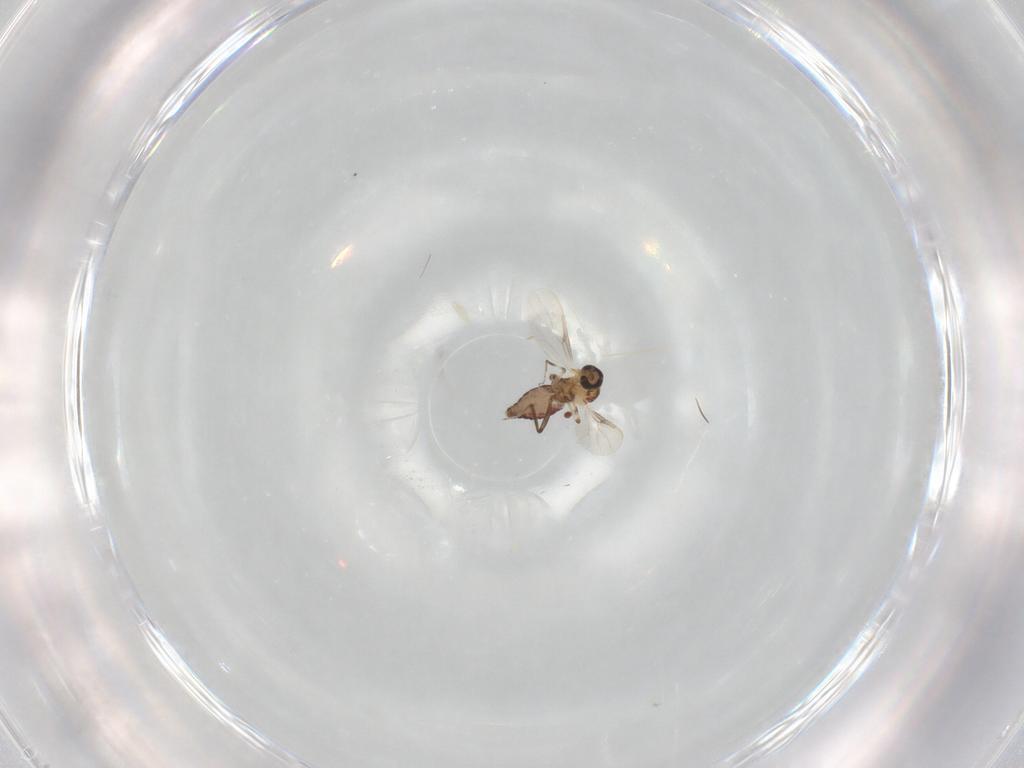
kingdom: Animalia
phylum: Arthropoda
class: Insecta
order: Diptera
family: Ceratopogonidae
